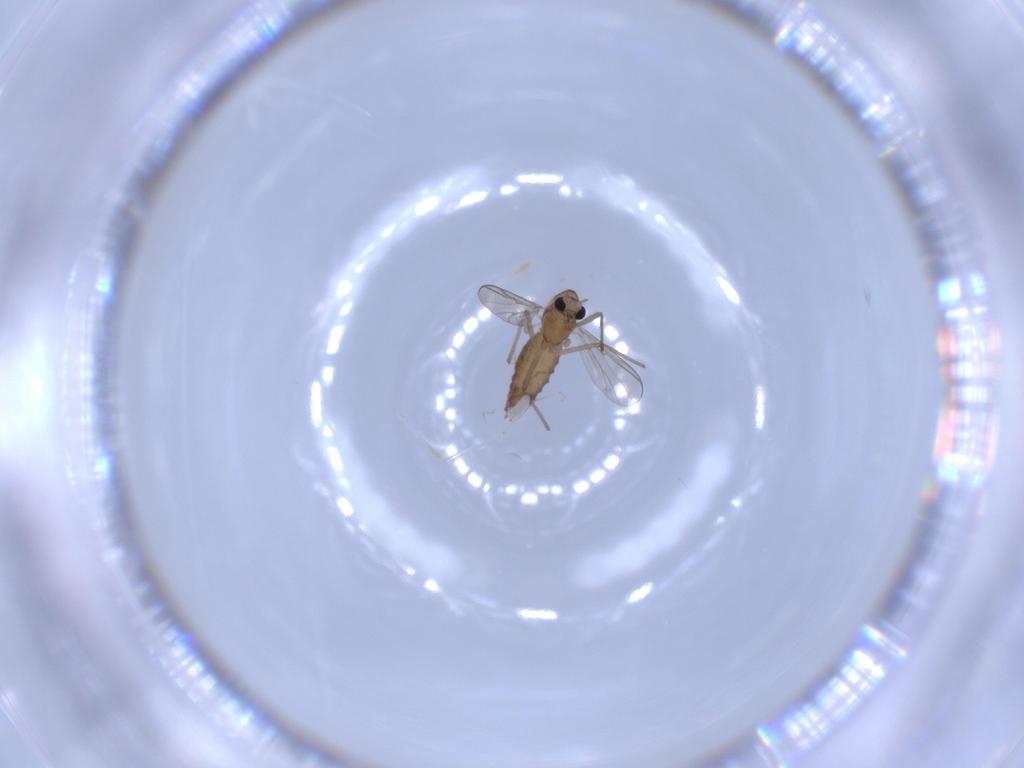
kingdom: Animalia
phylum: Arthropoda
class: Insecta
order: Diptera
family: Chironomidae
